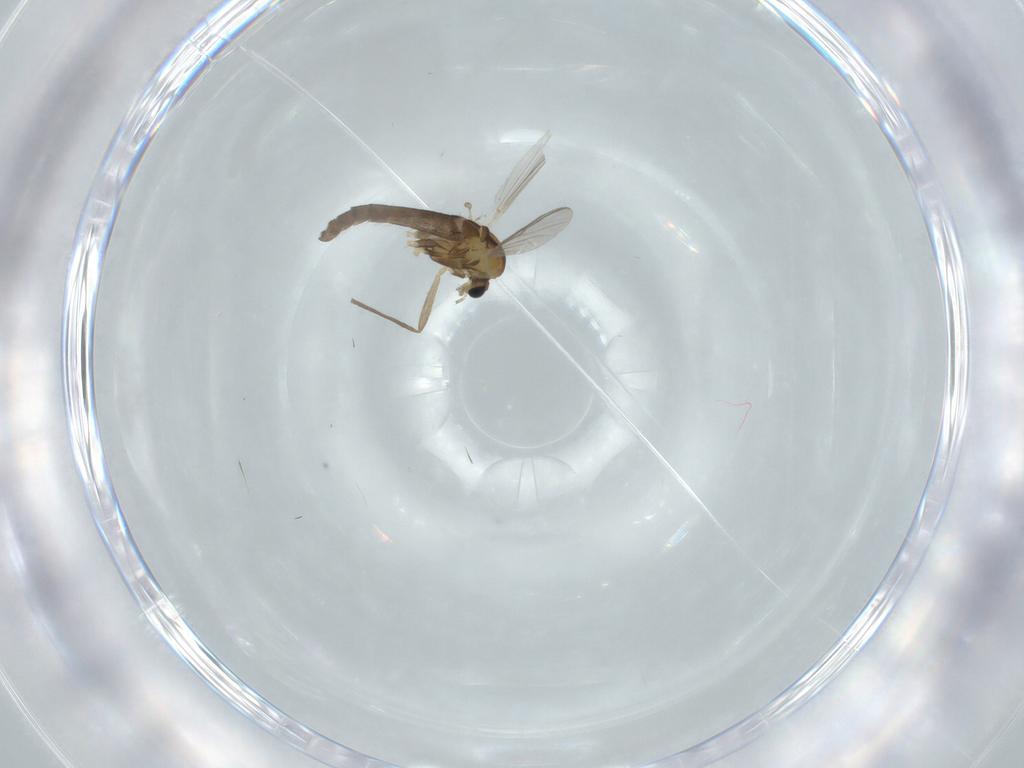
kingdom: Animalia
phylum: Arthropoda
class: Insecta
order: Diptera
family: Chironomidae
